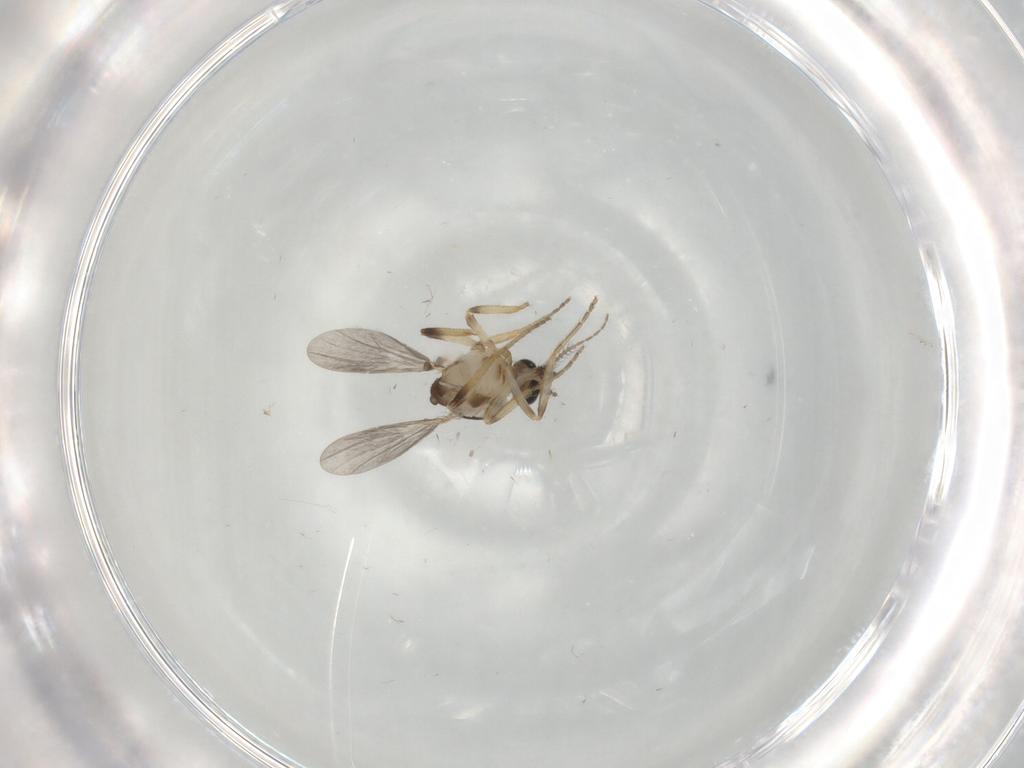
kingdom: Animalia
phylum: Arthropoda
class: Insecta
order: Diptera
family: Ceratopogonidae
